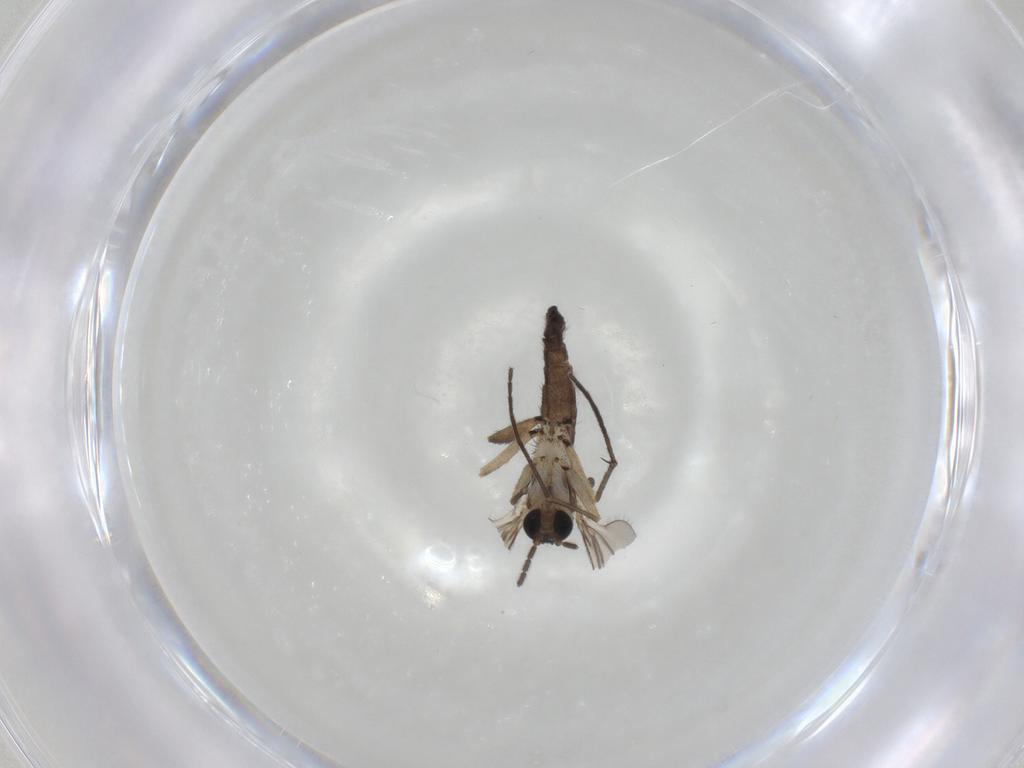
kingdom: Animalia
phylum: Arthropoda
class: Insecta
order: Diptera
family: Sciaridae
